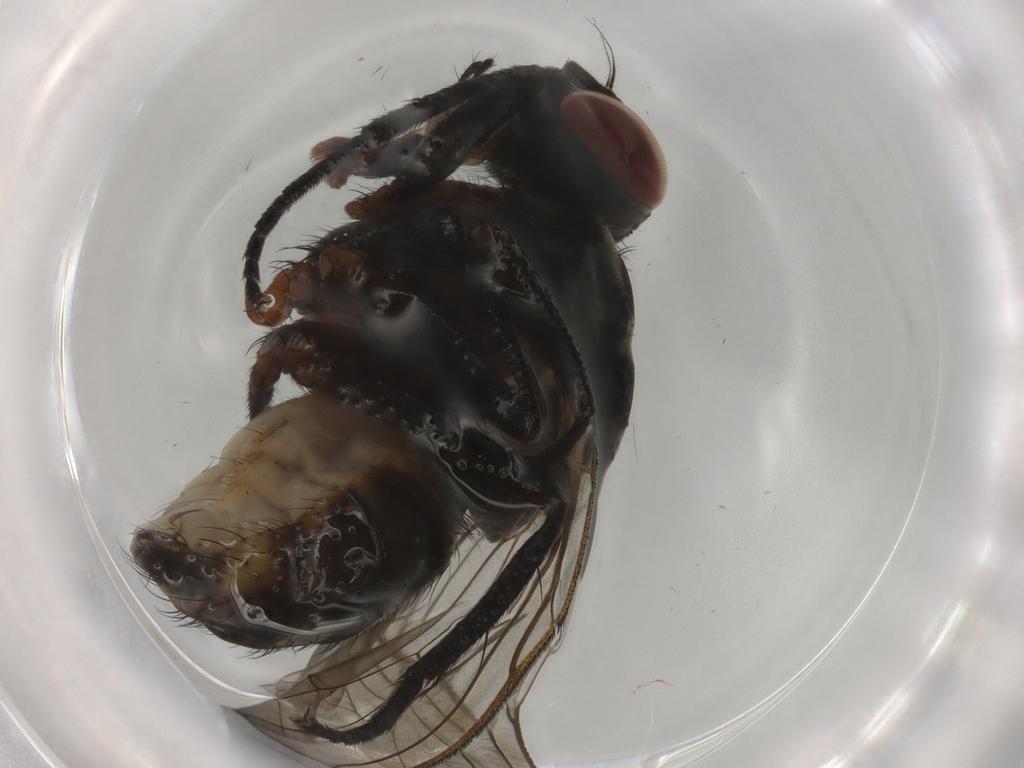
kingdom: Animalia
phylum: Arthropoda
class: Insecta
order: Diptera
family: Anthomyiidae
